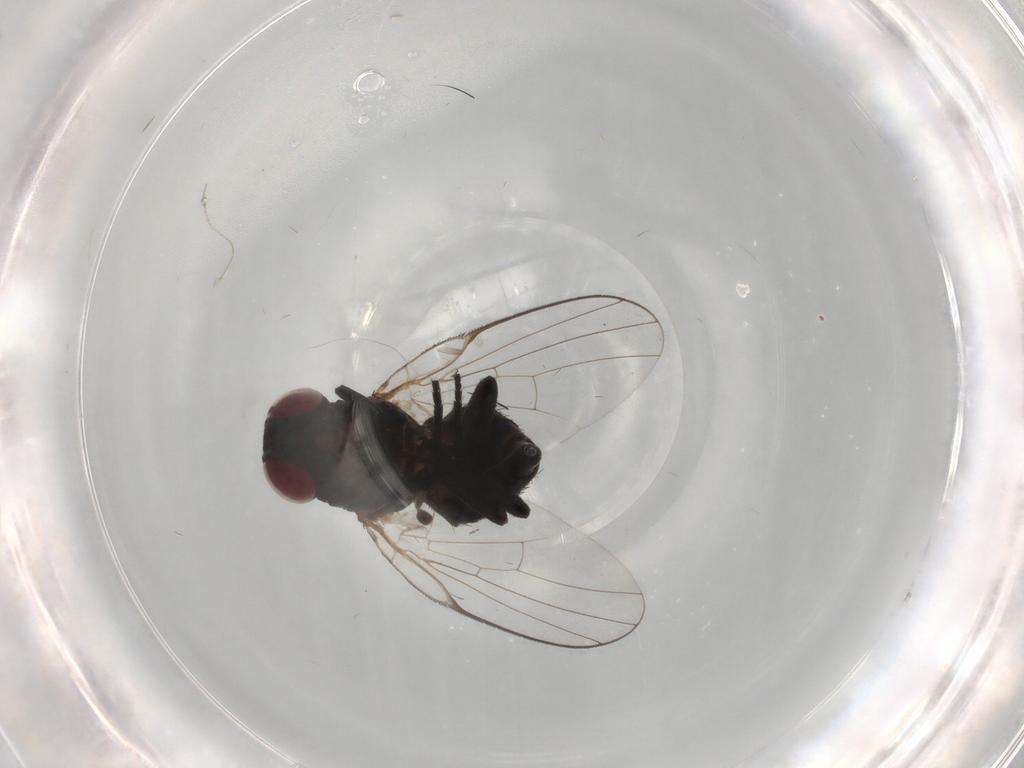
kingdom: Animalia
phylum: Arthropoda
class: Insecta
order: Diptera
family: Agromyzidae
